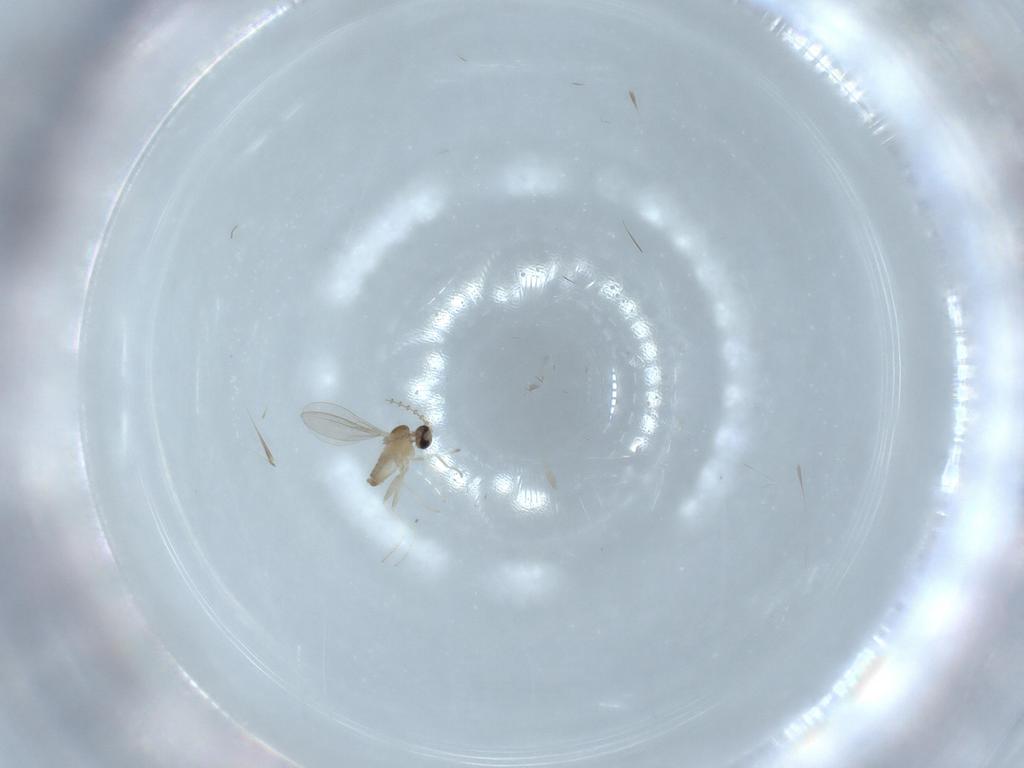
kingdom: Animalia
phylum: Arthropoda
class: Insecta
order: Diptera
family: Cecidomyiidae
